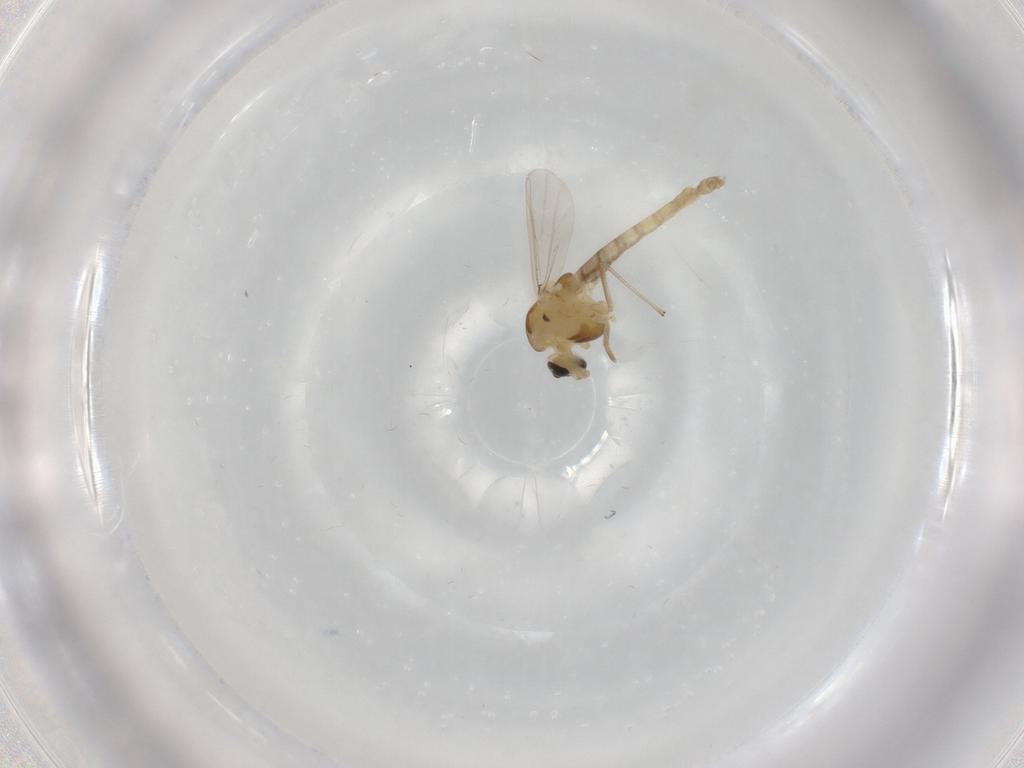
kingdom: Animalia
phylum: Arthropoda
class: Insecta
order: Diptera
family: Chironomidae
